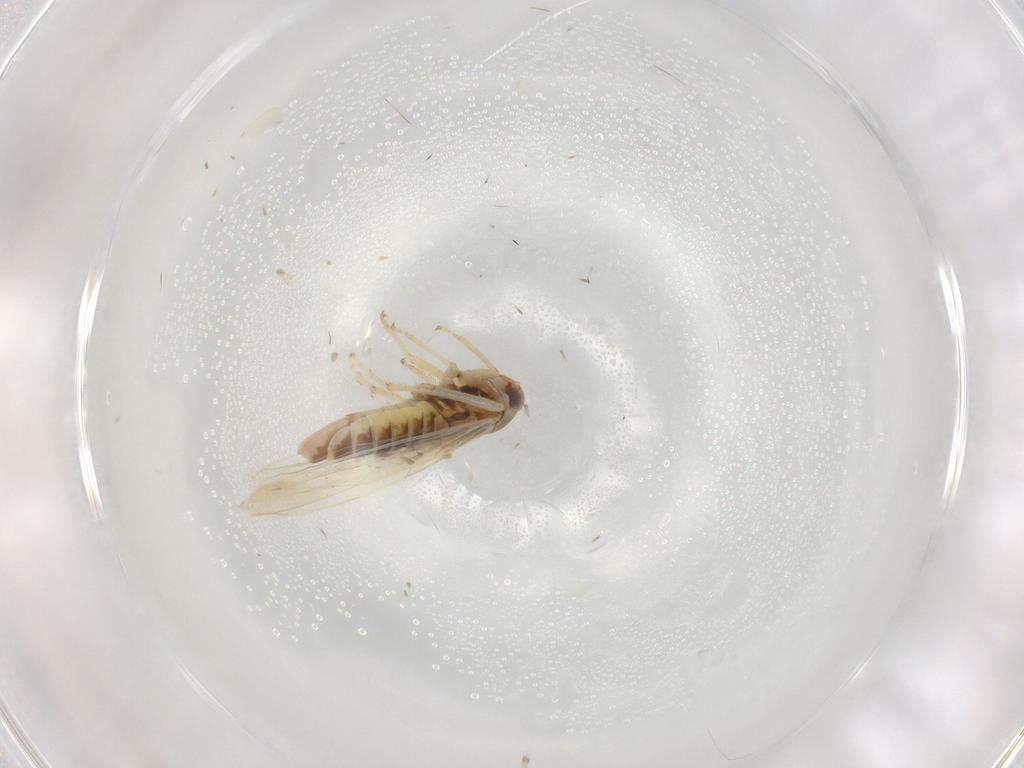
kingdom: Animalia
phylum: Arthropoda
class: Insecta
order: Hemiptera
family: Cicadellidae
